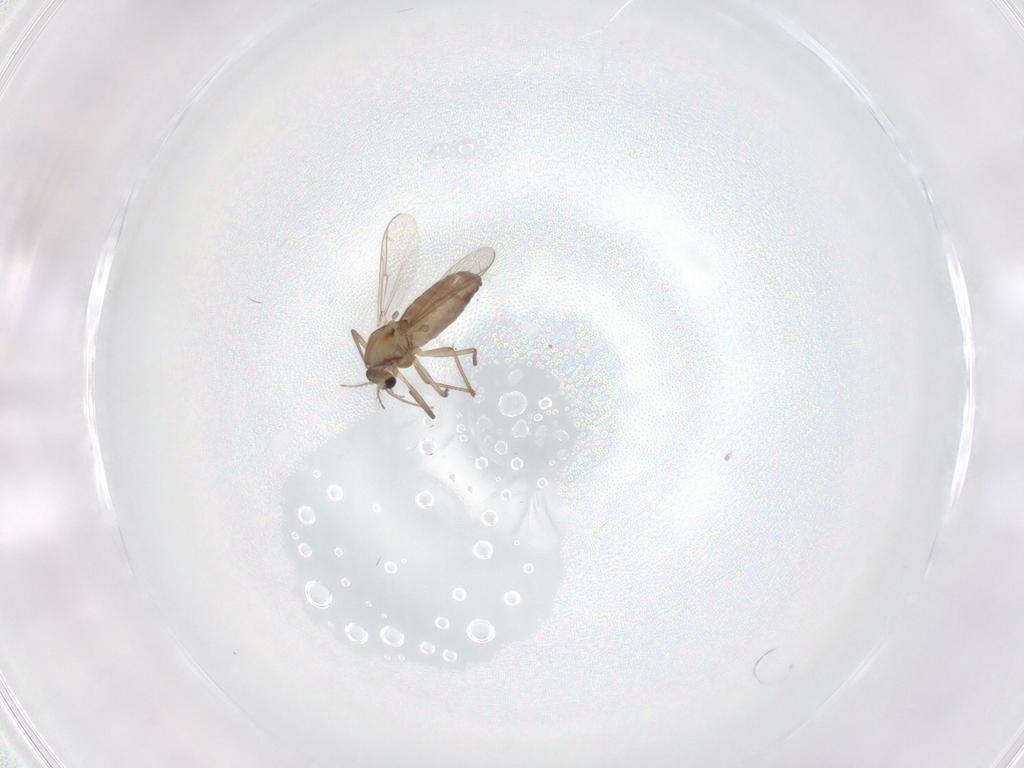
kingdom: Animalia
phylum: Arthropoda
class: Insecta
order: Diptera
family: Chironomidae
